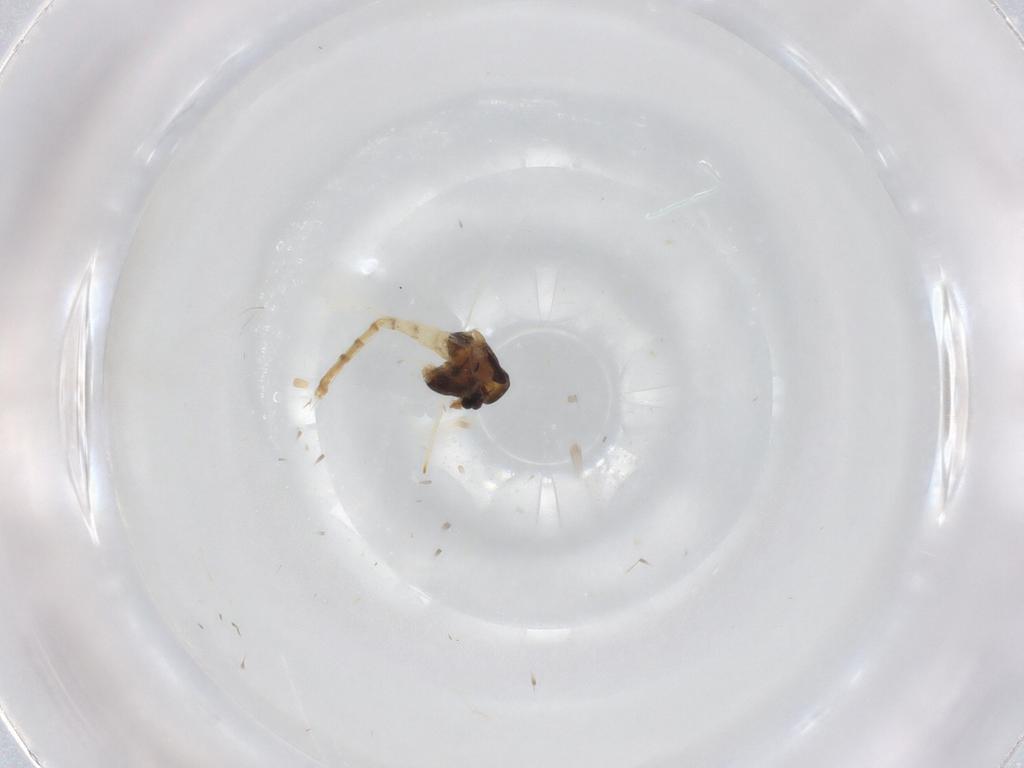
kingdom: Animalia
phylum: Arthropoda
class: Insecta
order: Diptera
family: Chironomidae
